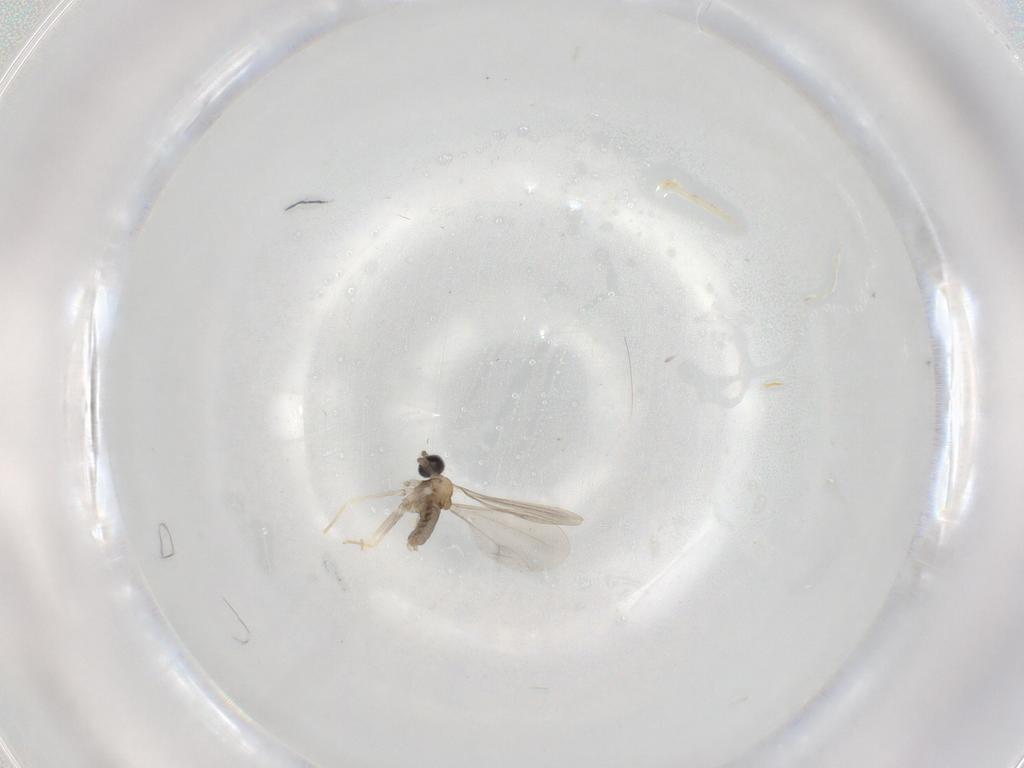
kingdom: Animalia
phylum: Arthropoda
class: Insecta
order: Diptera
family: Cecidomyiidae
